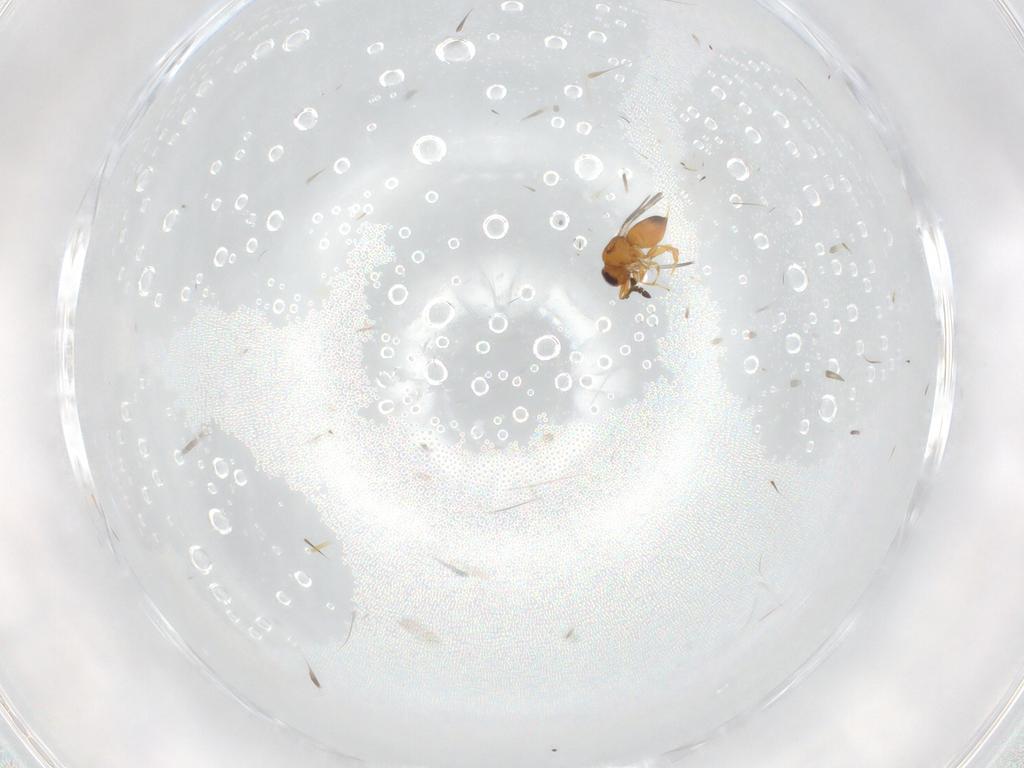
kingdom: Animalia
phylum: Arthropoda
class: Insecta
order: Hymenoptera
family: Ceraphronidae
